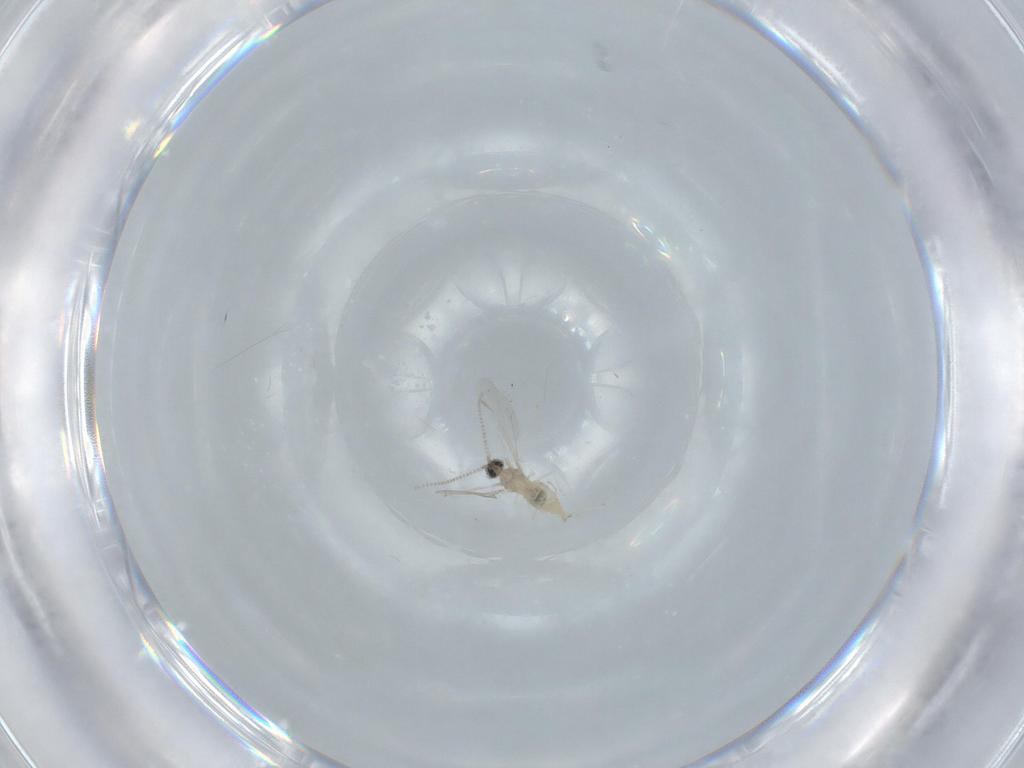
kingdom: Animalia
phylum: Arthropoda
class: Insecta
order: Diptera
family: Cecidomyiidae
